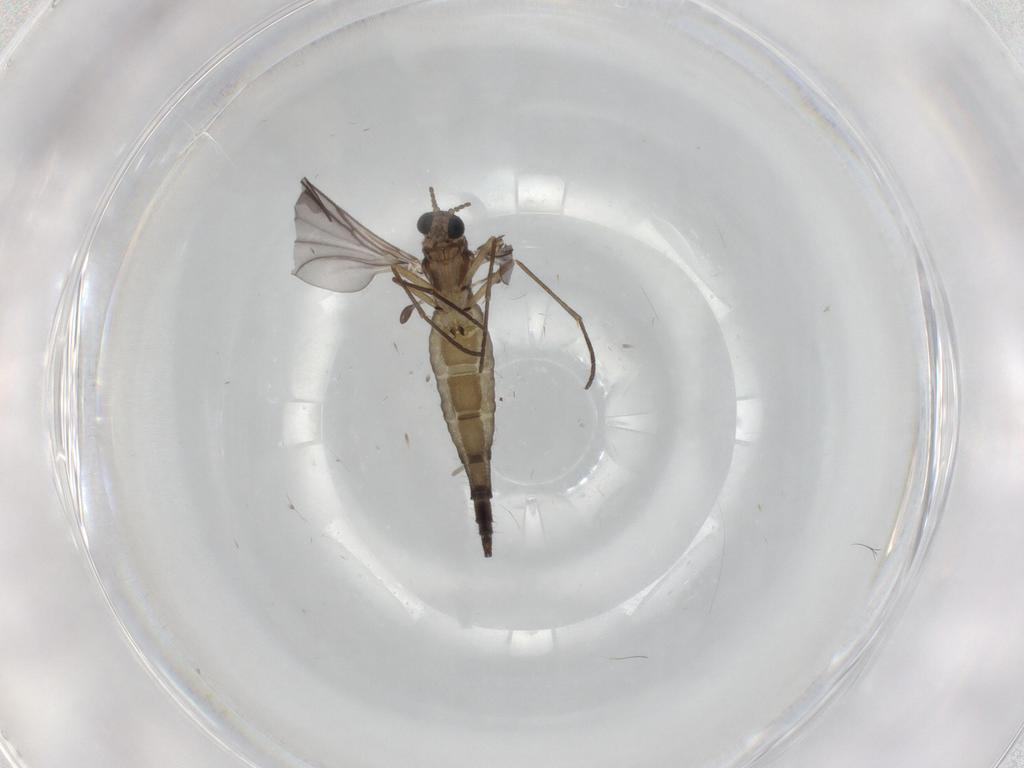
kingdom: Animalia
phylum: Arthropoda
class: Insecta
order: Diptera
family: Sciaridae
